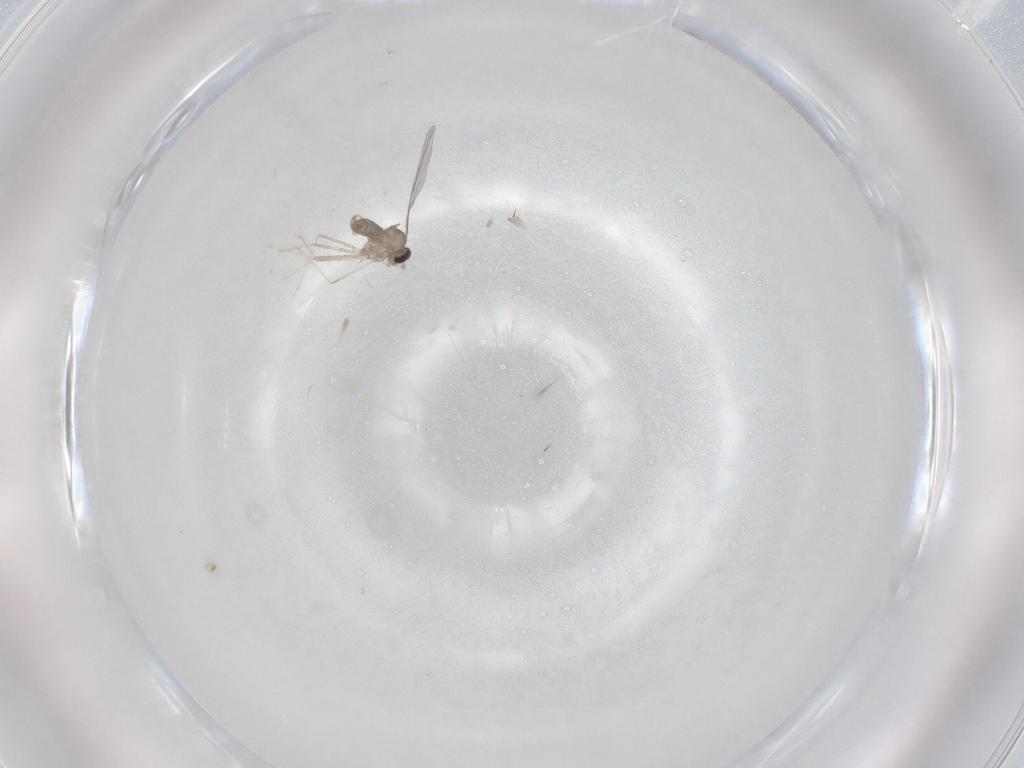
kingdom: Animalia
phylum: Arthropoda
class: Insecta
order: Diptera
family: Cecidomyiidae
